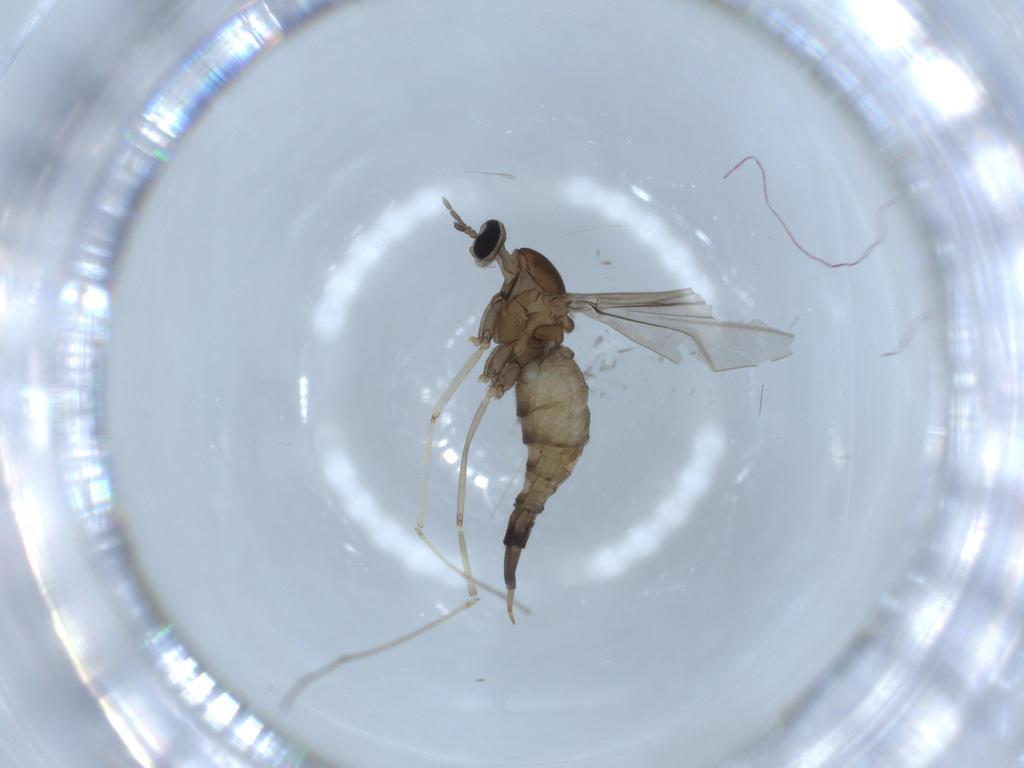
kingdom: Animalia
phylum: Arthropoda
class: Insecta
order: Diptera
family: Cecidomyiidae
